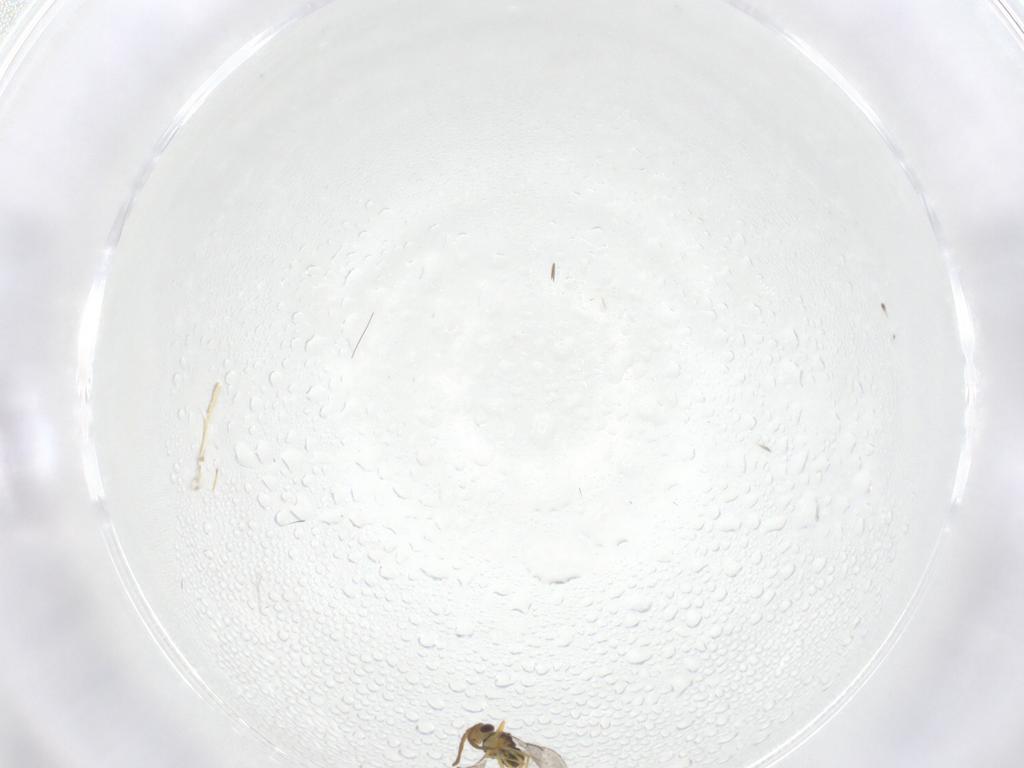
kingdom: Animalia
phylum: Arthropoda
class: Insecta
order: Hymenoptera
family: Aphelinidae
